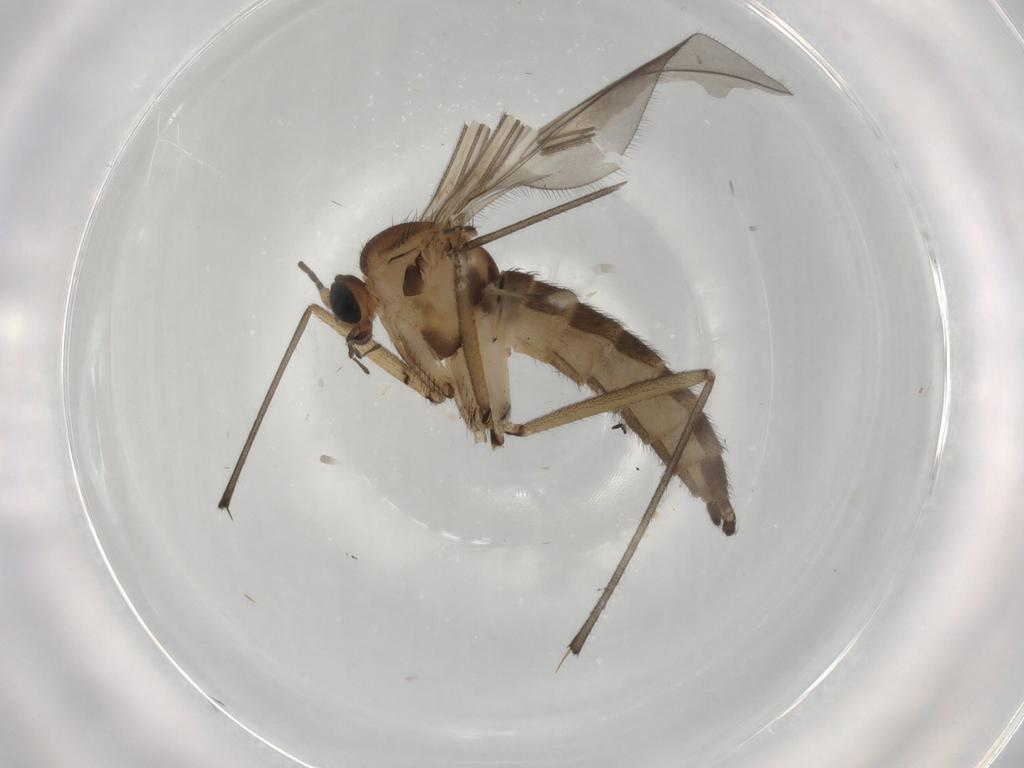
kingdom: Animalia
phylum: Arthropoda
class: Insecta
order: Diptera
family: Sciaridae
